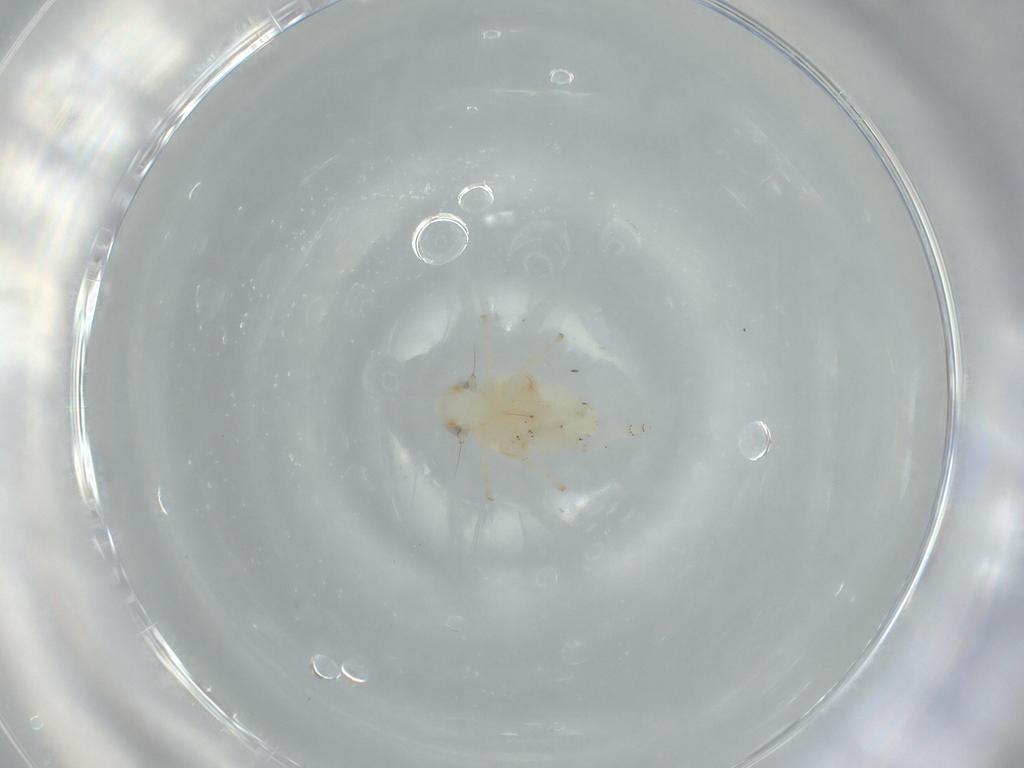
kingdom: Animalia
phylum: Arthropoda
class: Insecta
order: Hemiptera
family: Nogodinidae
